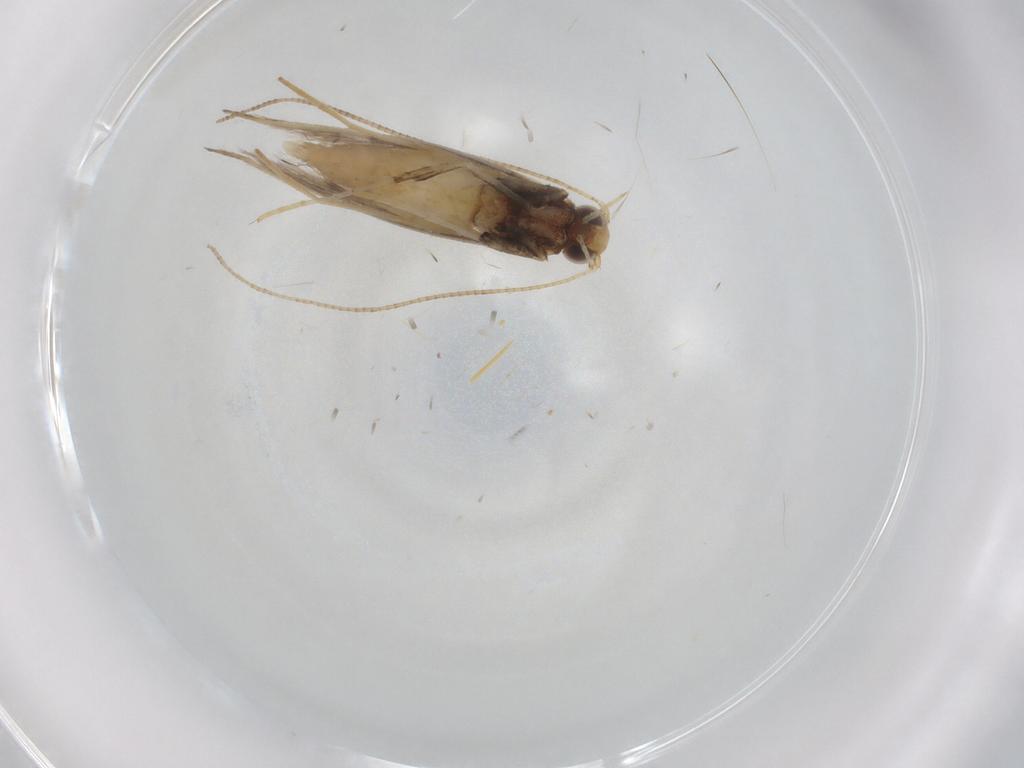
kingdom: Animalia
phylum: Arthropoda
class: Insecta
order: Lepidoptera
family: Gracillariidae
